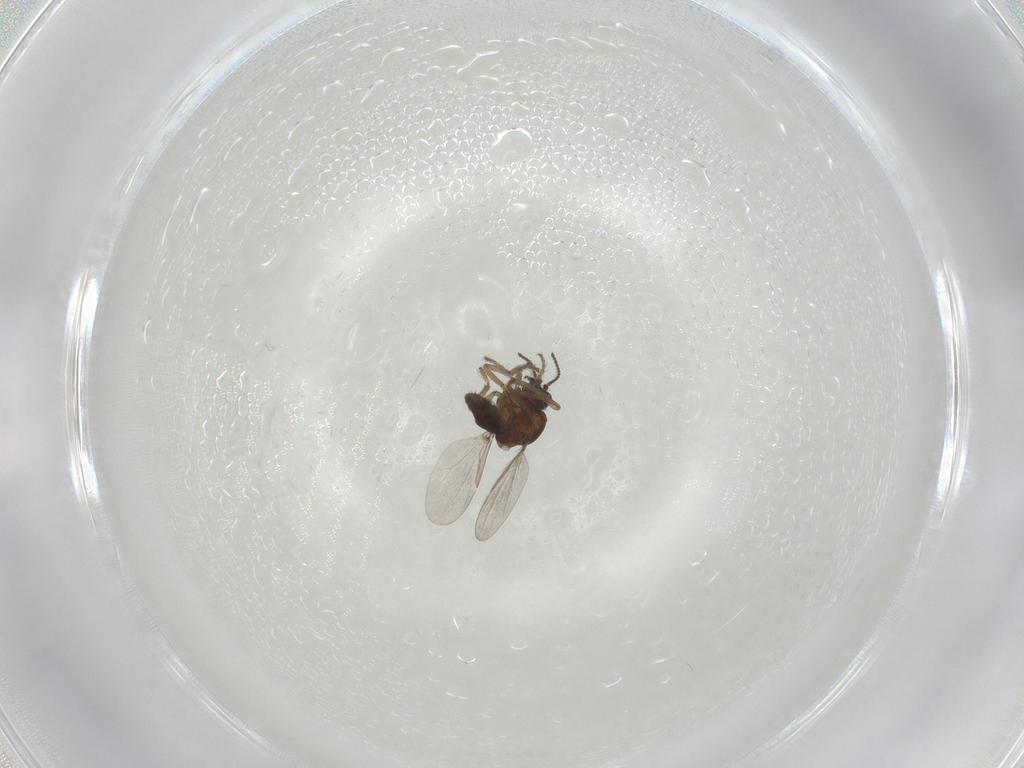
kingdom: Animalia
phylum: Arthropoda
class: Insecta
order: Diptera
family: Ceratopogonidae
